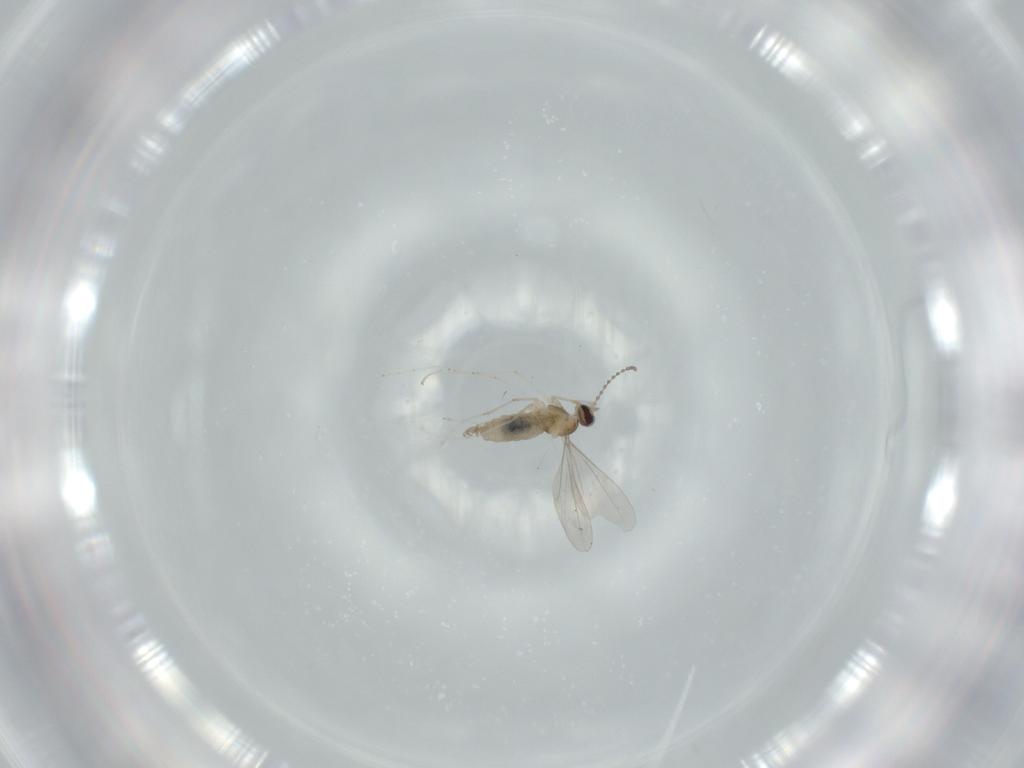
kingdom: Animalia
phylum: Arthropoda
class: Insecta
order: Diptera
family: Cecidomyiidae
